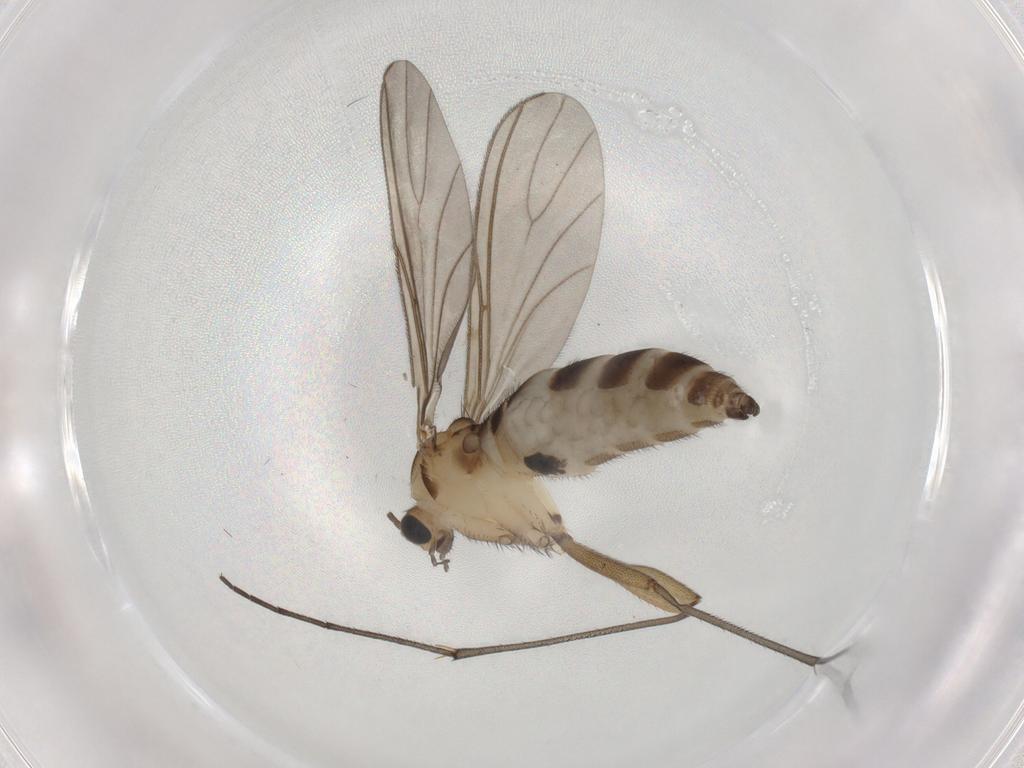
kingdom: Animalia
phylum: Arthropoda
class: Insecta
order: Diptera
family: Sciaridae
